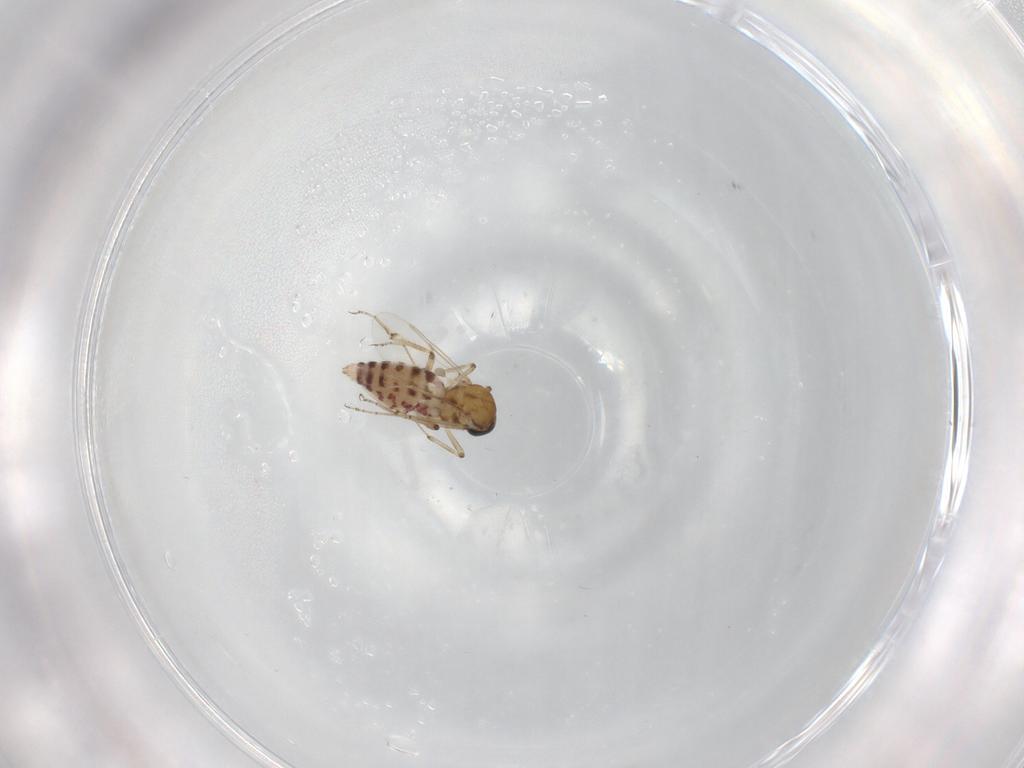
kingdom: Animalia
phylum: Arthropoda
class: Insecta
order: Diptera
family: Ceratopogonidae
